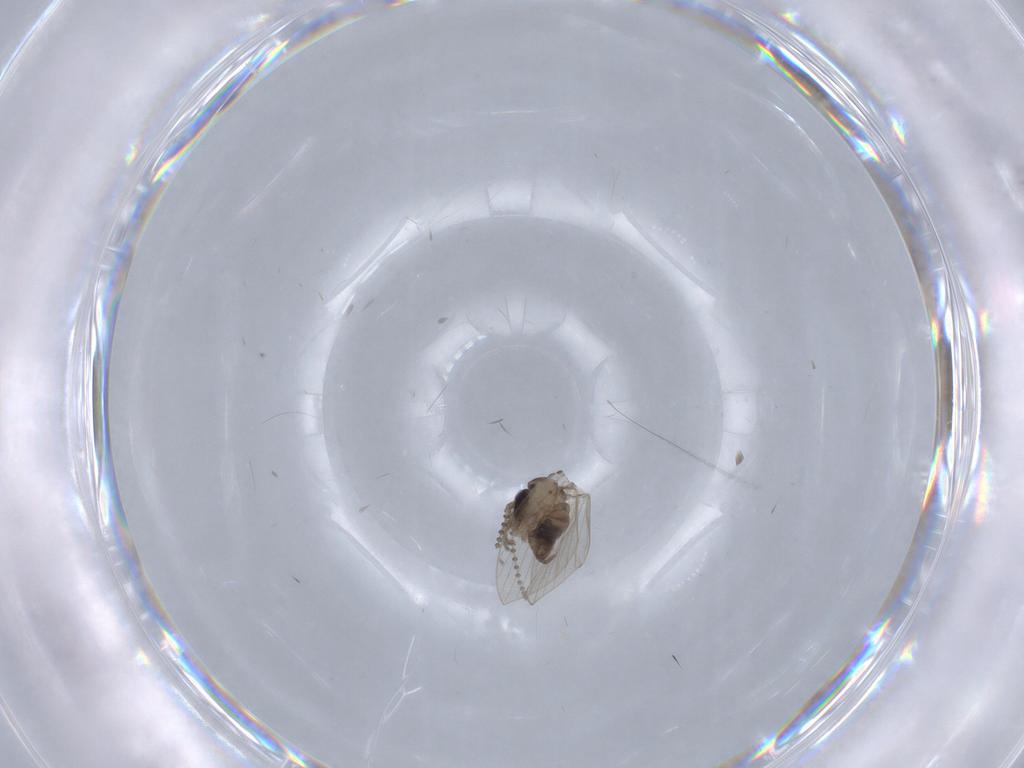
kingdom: Animalia
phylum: Arthropoda
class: Insecta
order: Diptera
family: Psychodidae
